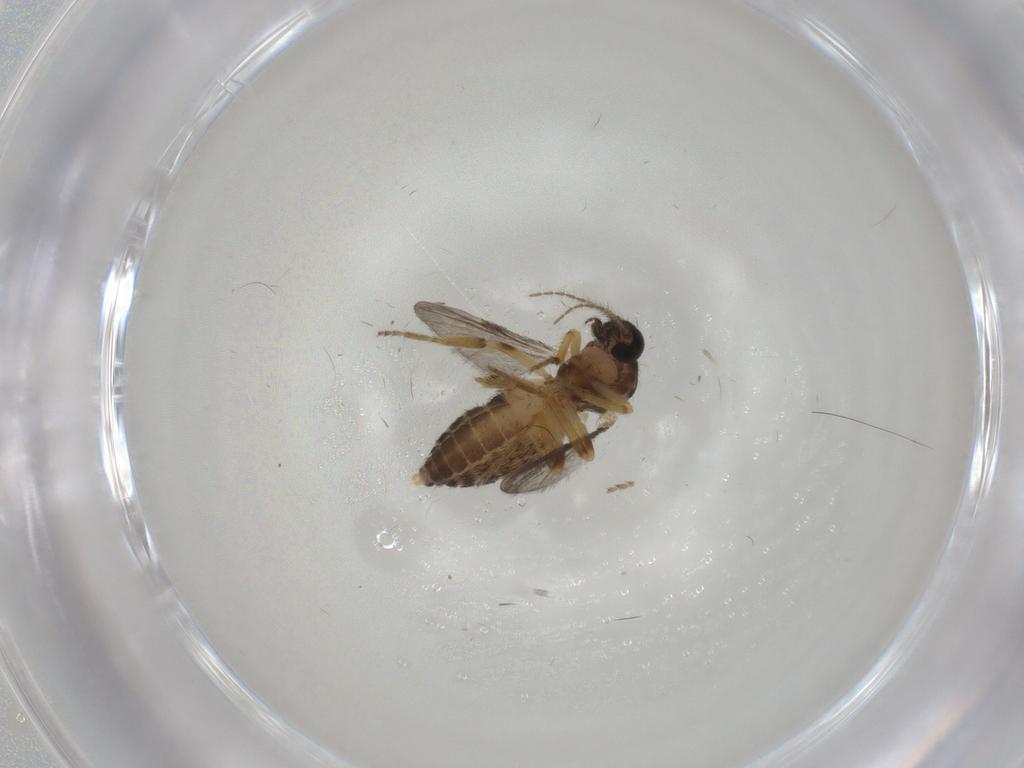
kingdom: Animalia
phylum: Arthropoda
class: Insecta
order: Diptera
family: Ceratopogonidae
